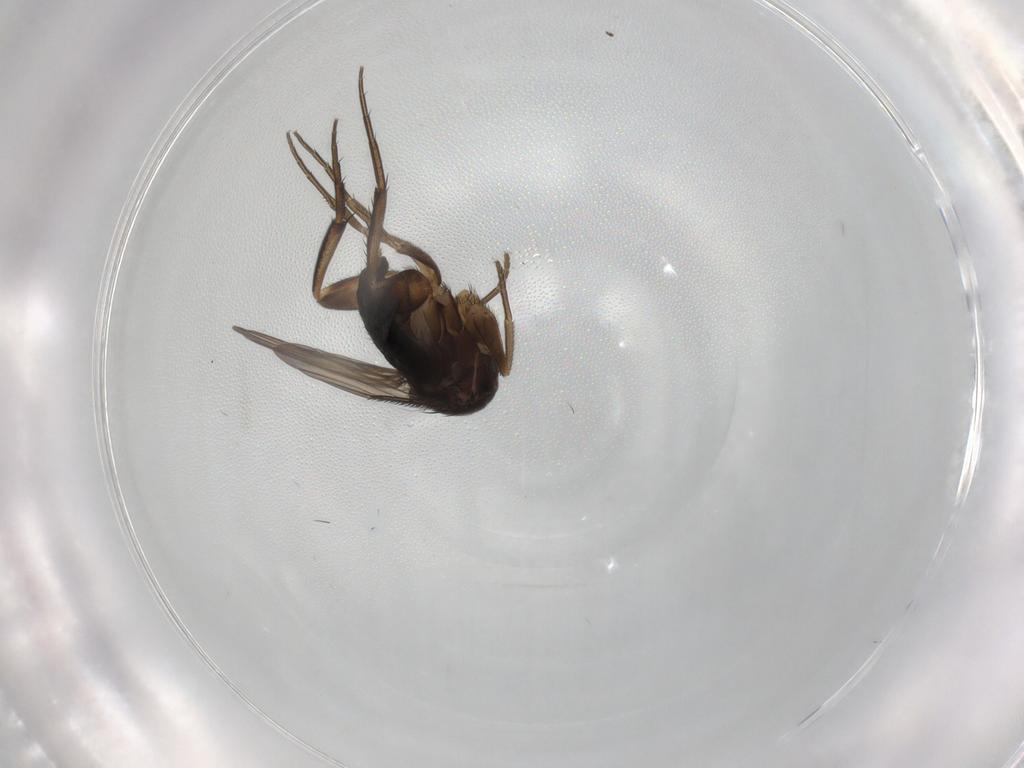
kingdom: Animalia
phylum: Arthropoda
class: Insecta
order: Diptera
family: Phoridae
